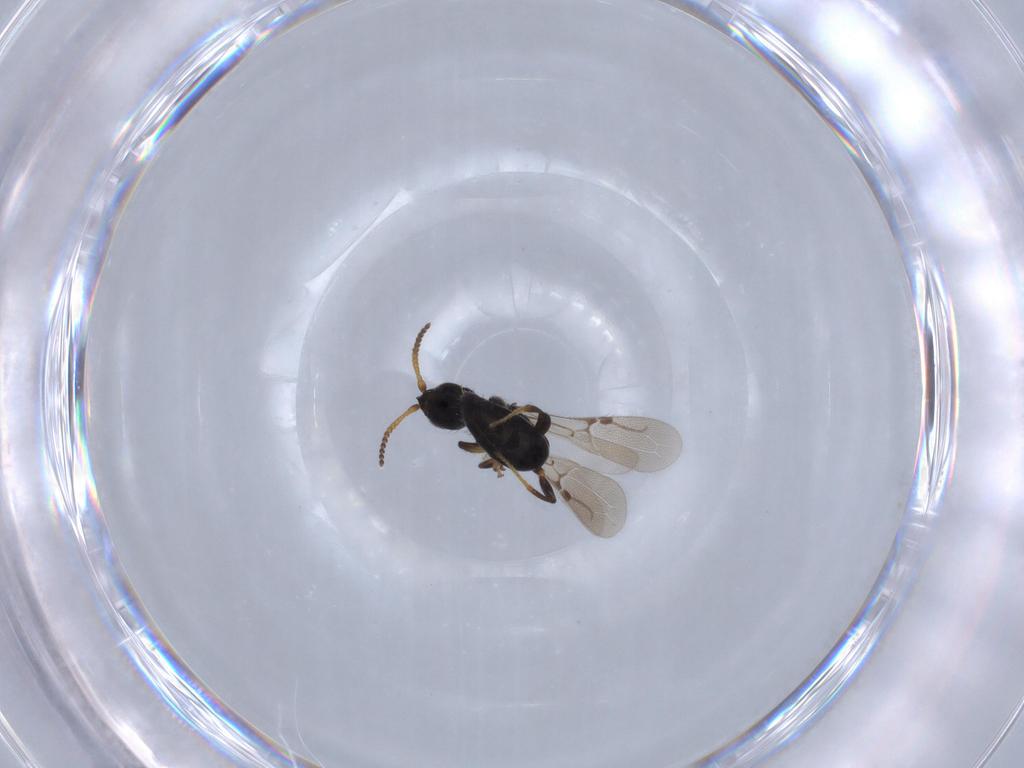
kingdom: Animalia
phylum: Arthropoda
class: Insecta
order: Hymenoptera
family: Bethylidae
